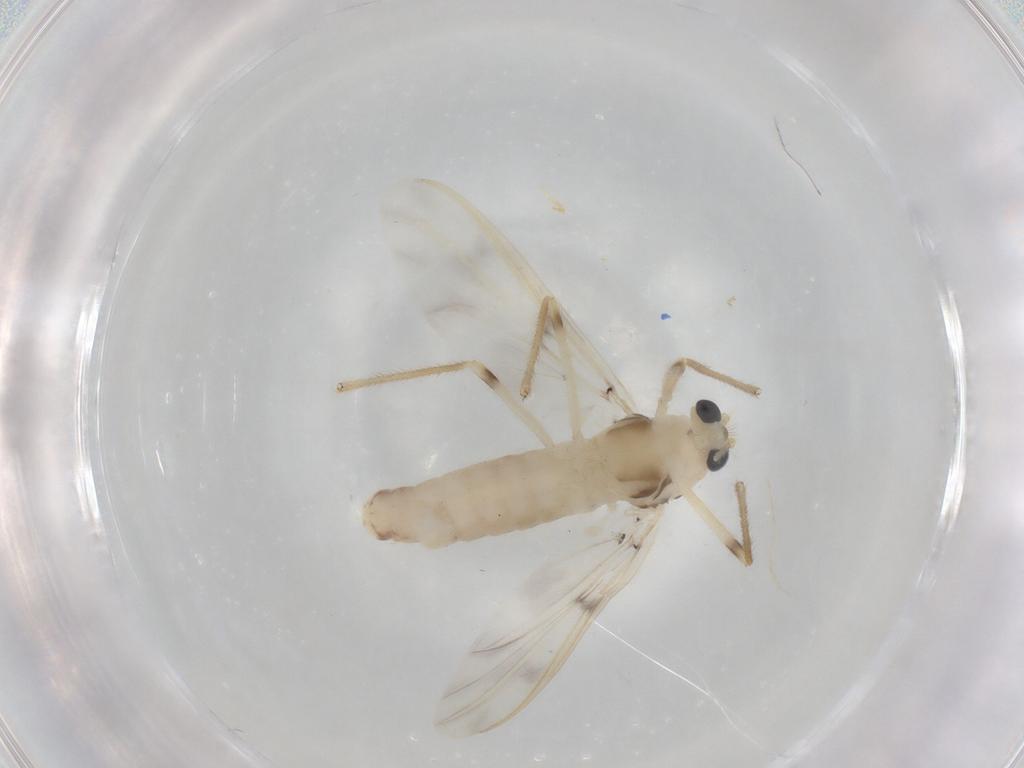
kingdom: Animalia
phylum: Arthropoda
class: Insecta
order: Diptera
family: Chironomidae
